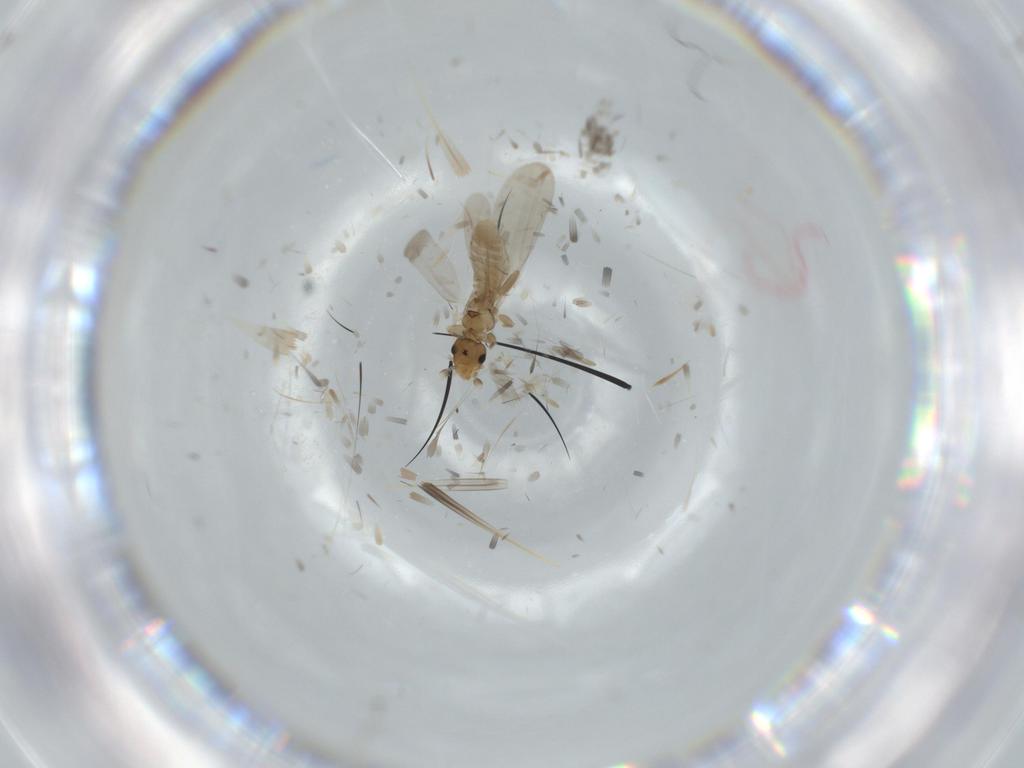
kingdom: Animalia
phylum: Arthropoda
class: Insecta
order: Psocodea
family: Liposcelididae
